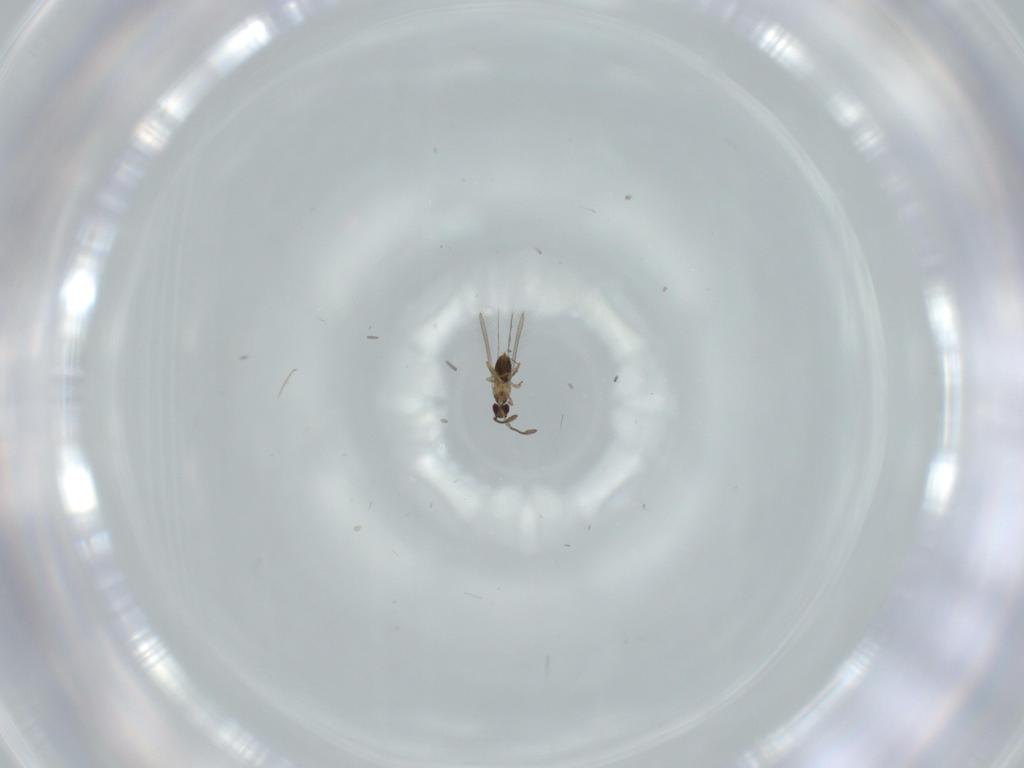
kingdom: Animalia
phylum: Arthropoda
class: Insecta
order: Hymenoptera
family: Mymaridae
